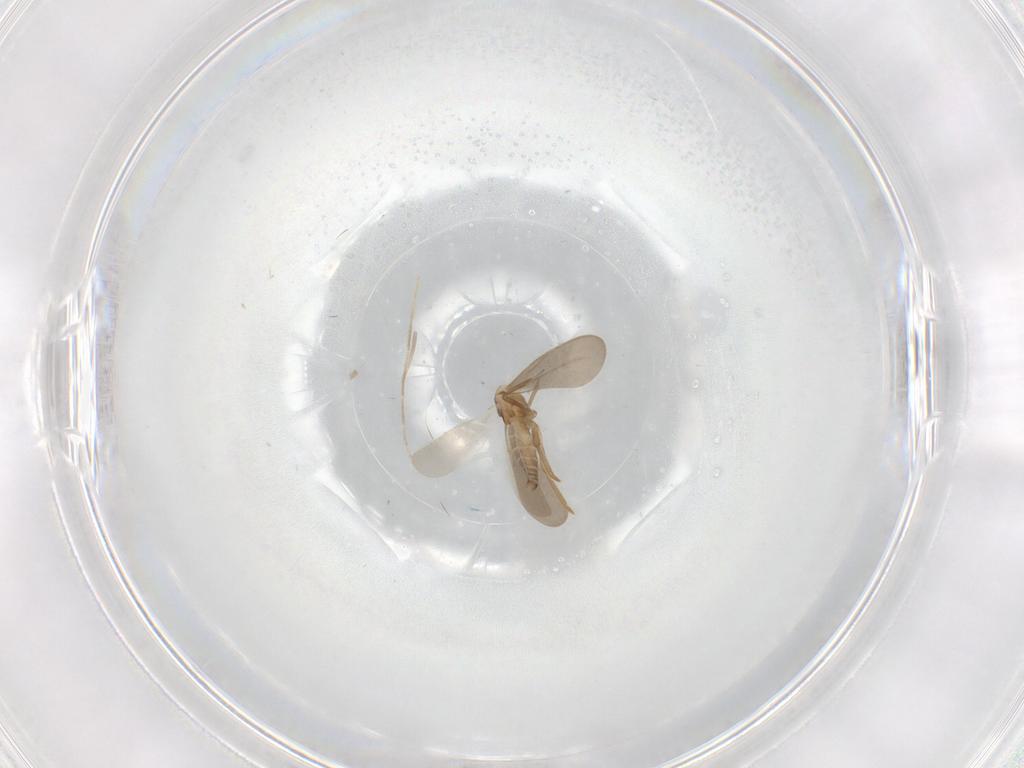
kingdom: Animalia
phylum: Arthropoda
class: Insecta
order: Hemiptera
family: Enicocephalidae
